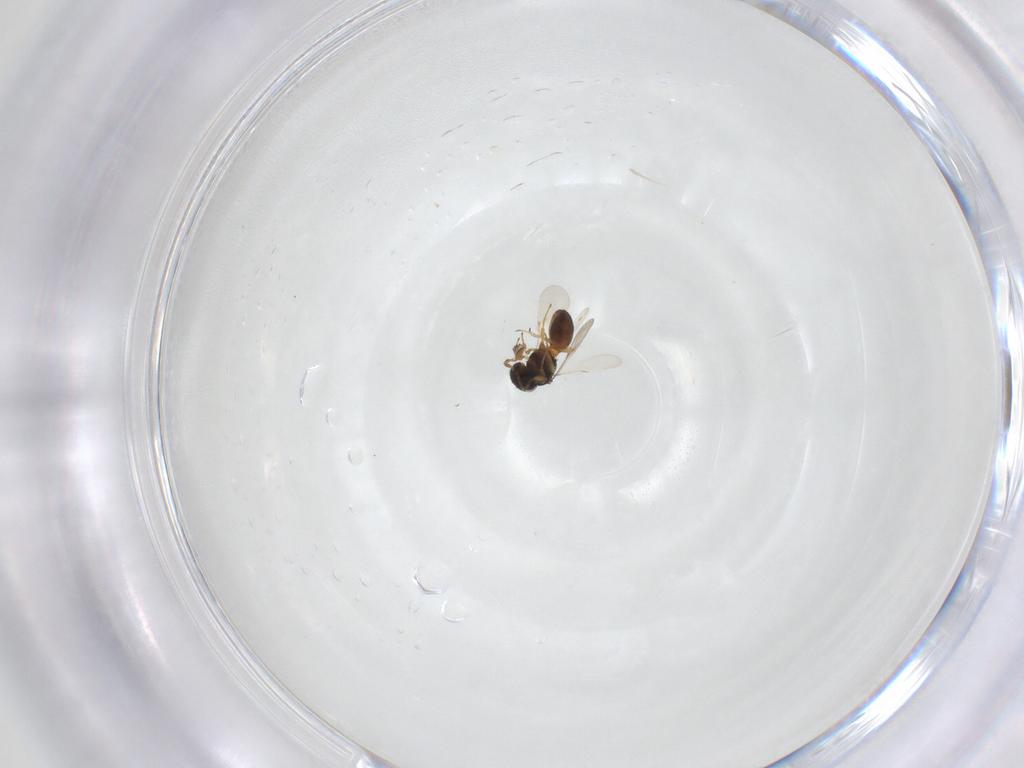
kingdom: Animalia
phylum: Arthropoda
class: Insecta
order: Hymenoptera
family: Scelionidae
